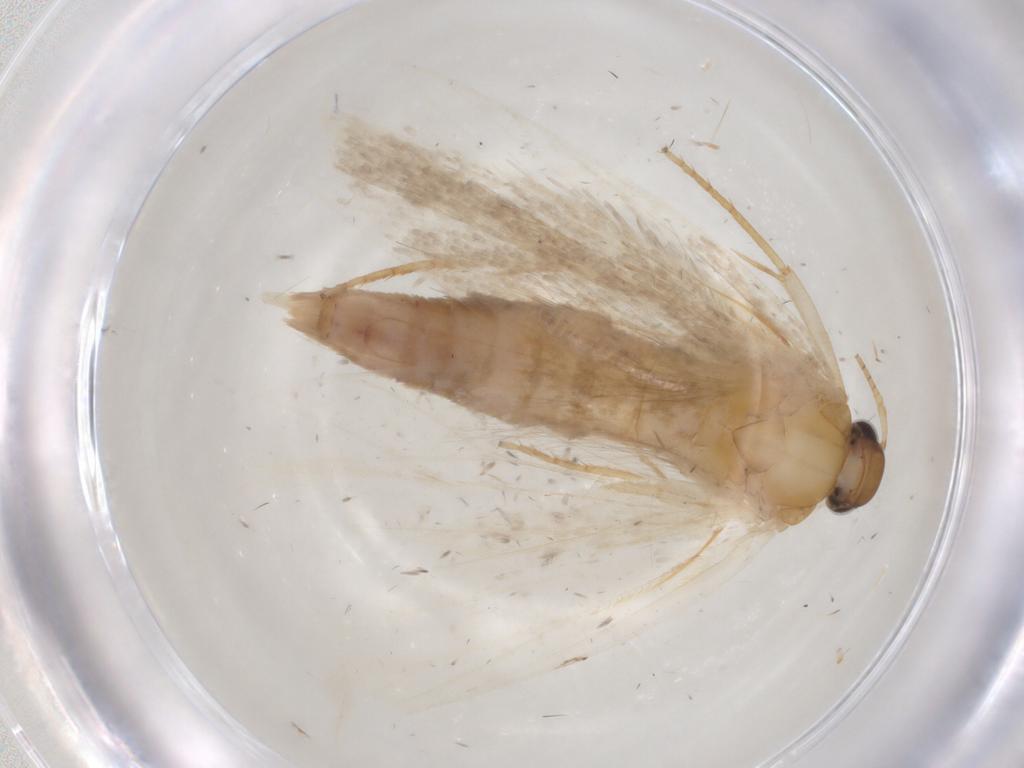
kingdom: Animalia
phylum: Arthropoda
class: Insecta
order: Lepidoptera
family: Gelechiidae
